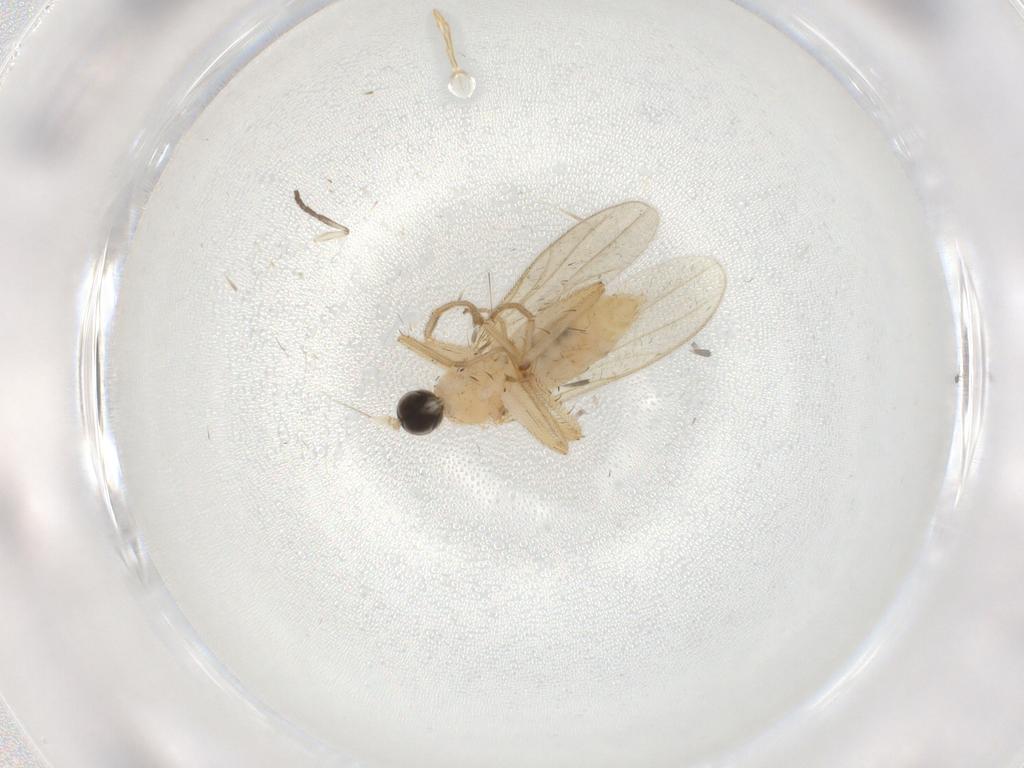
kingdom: Animalia
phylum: Arthropoda
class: Insecta
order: Diptera
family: Hybotidae
